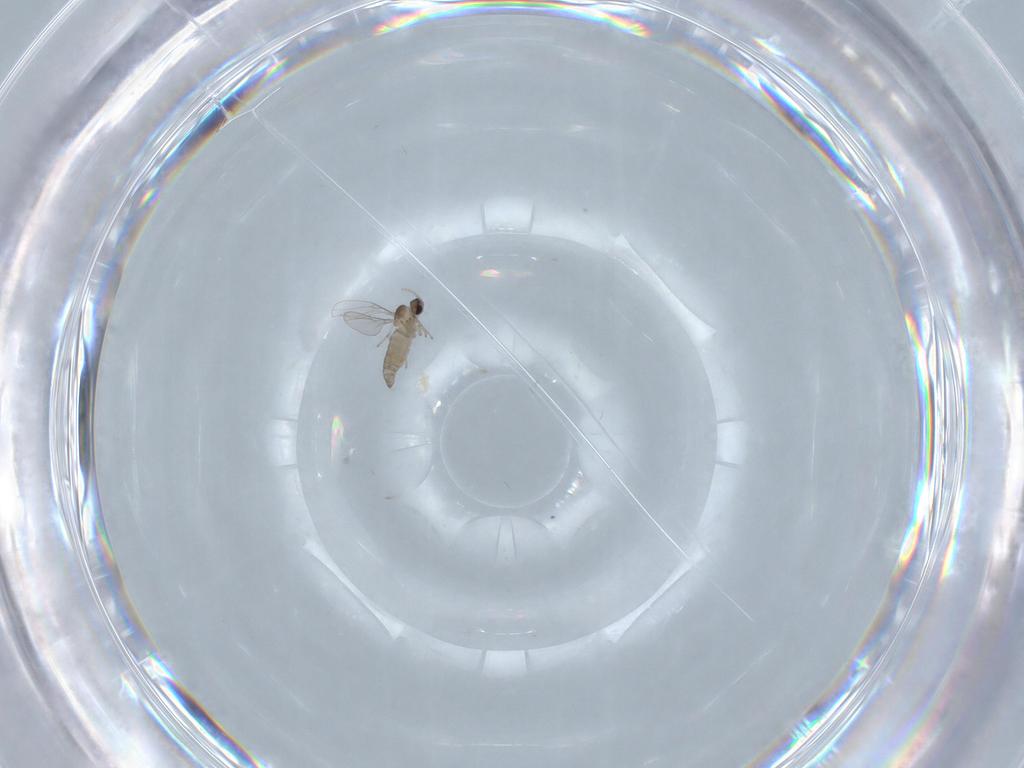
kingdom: Animalia
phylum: Arthropoda
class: Insecta
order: Diptera
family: Cecidomyiidae
